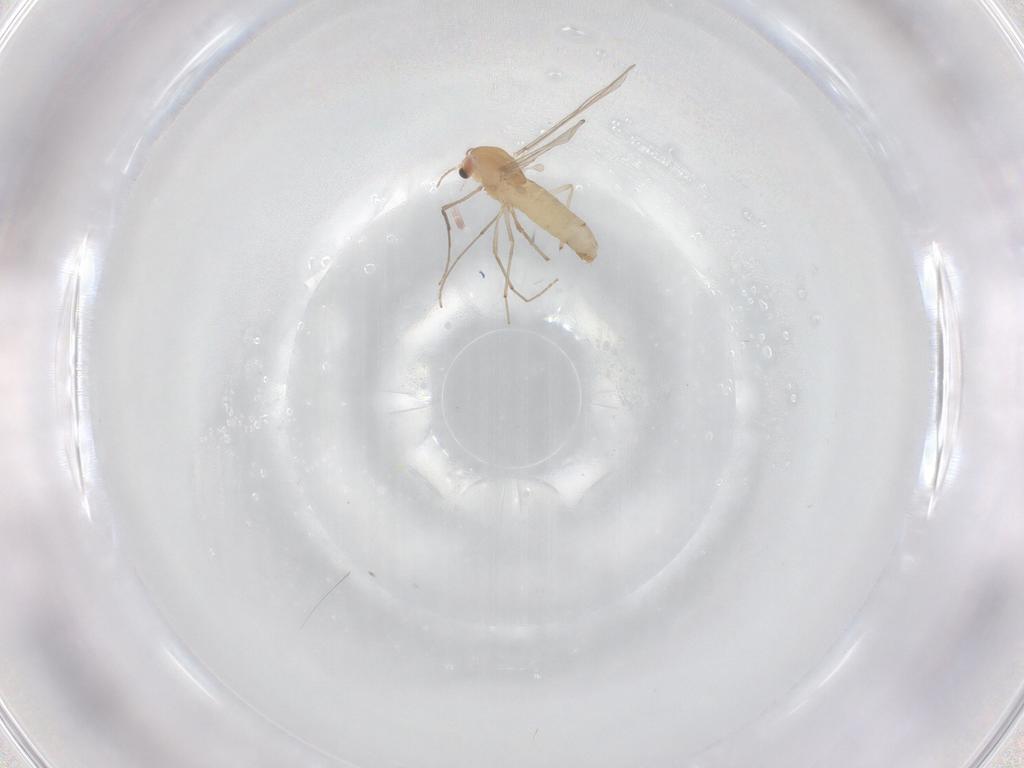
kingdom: Animalia
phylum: Arthropoda
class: Insecta
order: Diptera
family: Chironomidae
